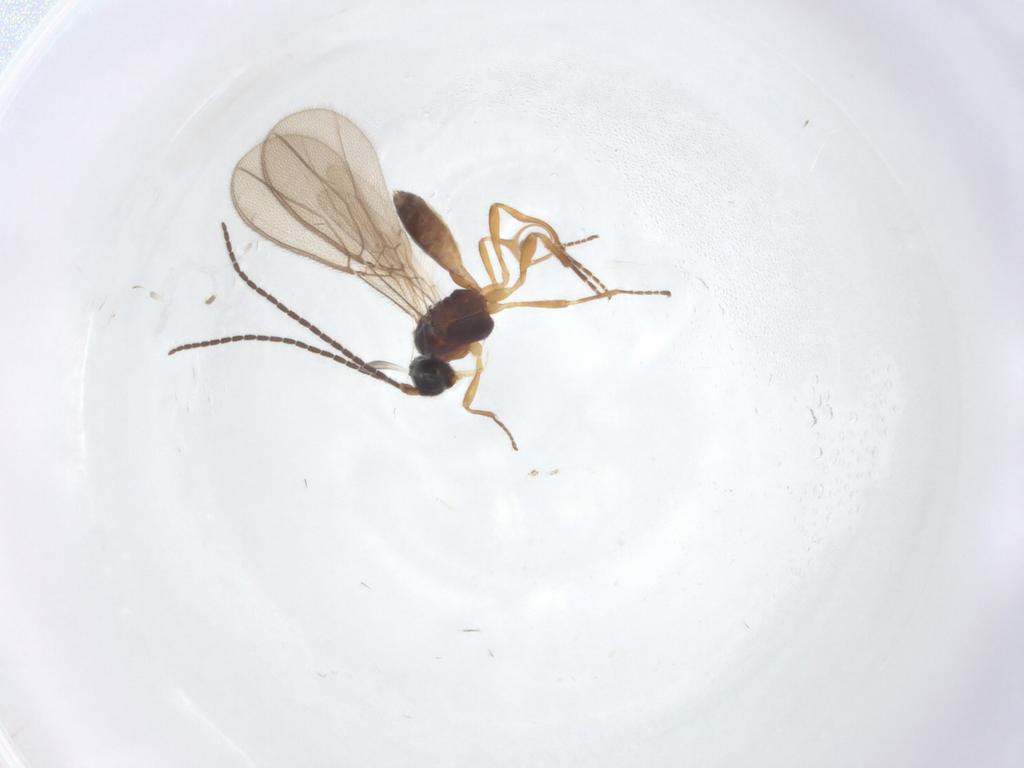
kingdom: Animalia
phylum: Arthropoda
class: Insecta
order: Hymenoptera
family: Braconidae
